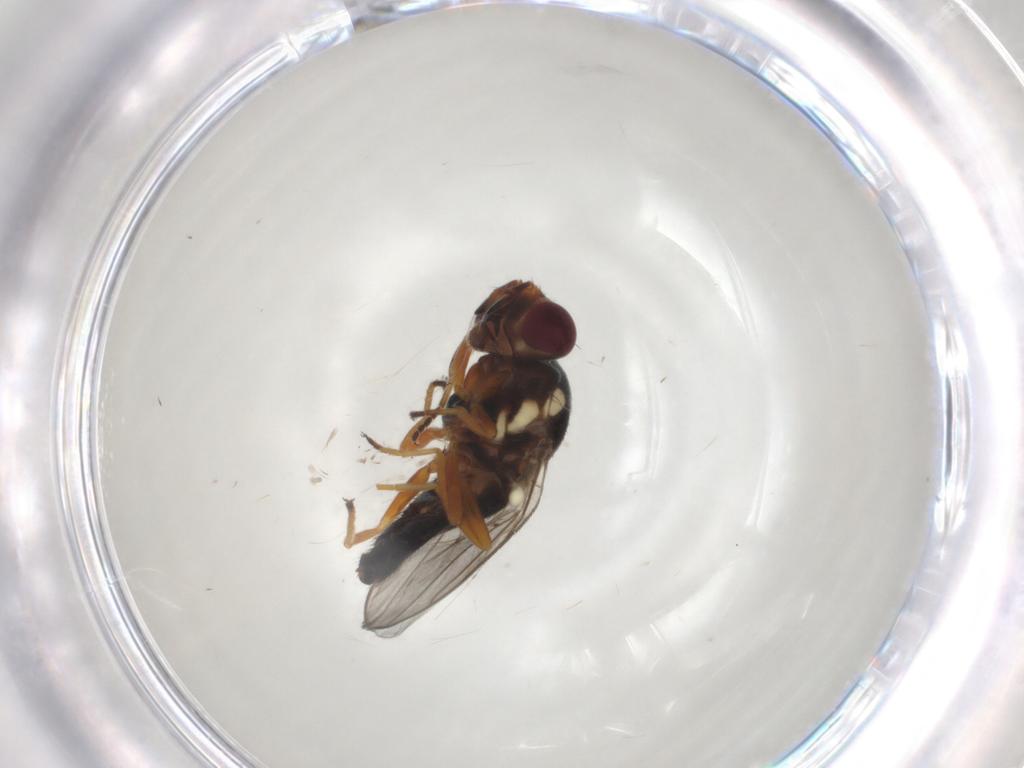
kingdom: Animalia
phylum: Arthropoda
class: Insecta
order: Diptera
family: Chloropidae
